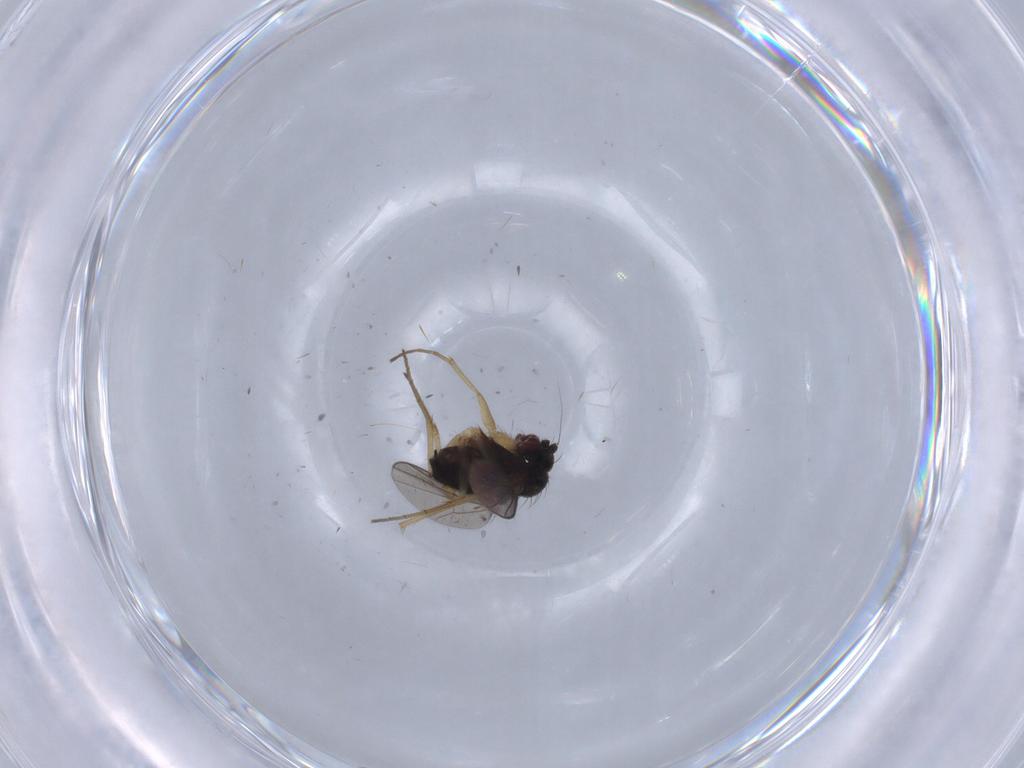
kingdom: Animalia
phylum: Arthropoda
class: Insecta
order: Diptera
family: Dolichopodidae
